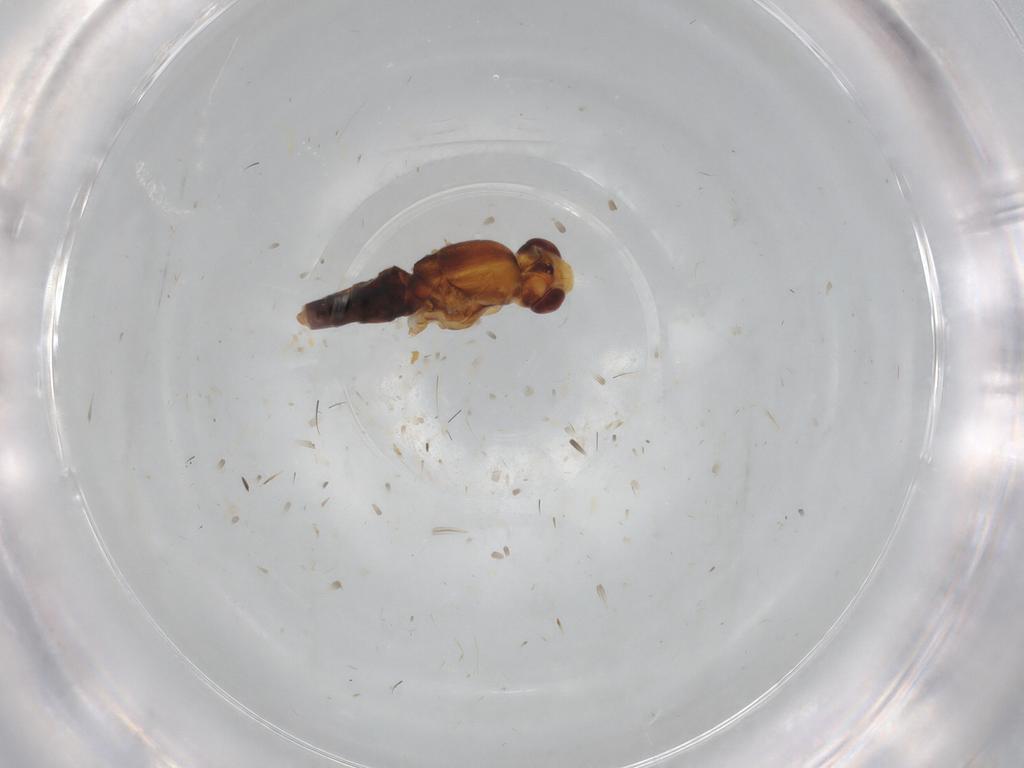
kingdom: Animalia
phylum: Arthropoda
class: Insecta
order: Diptera
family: Chloropidae
